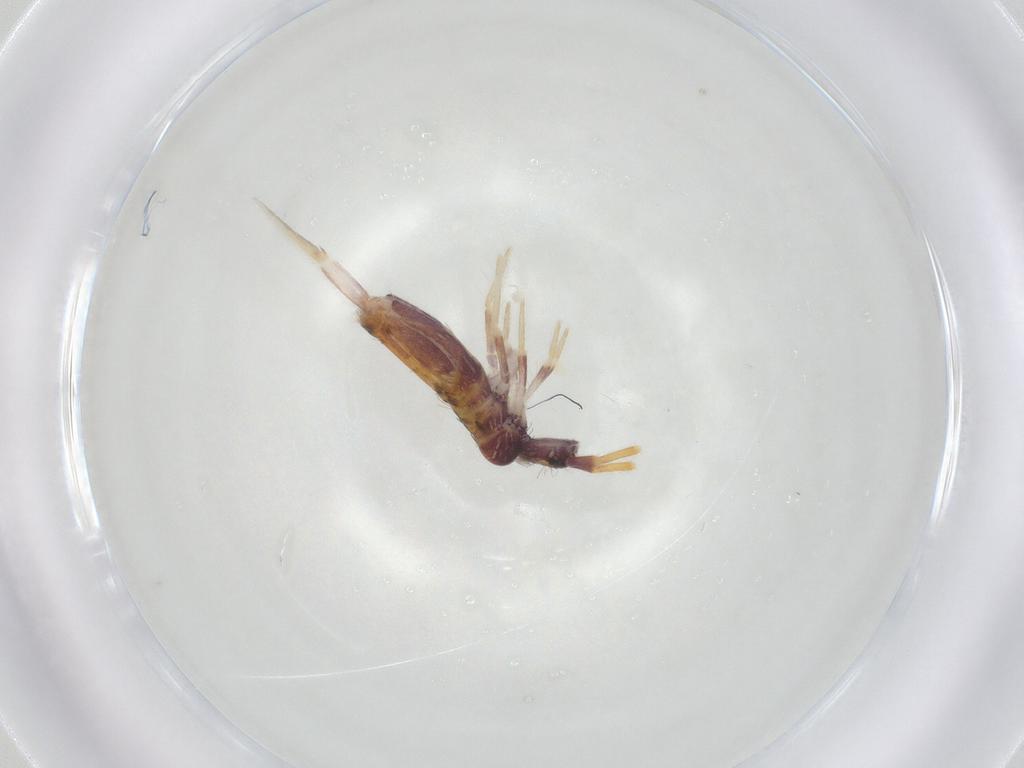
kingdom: Animalia
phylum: Arthropoda
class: Collembola
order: Entomobryomorpha
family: Entomobryidae
